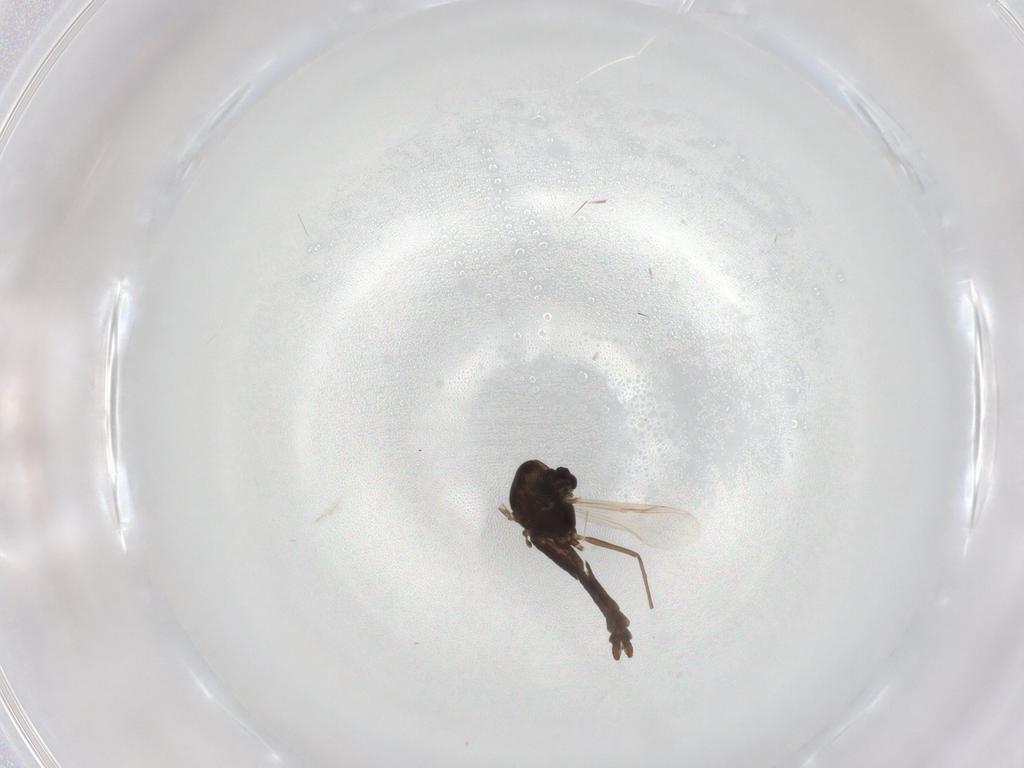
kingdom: Animalia
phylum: Arthropoda
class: Insecta
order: Diptera
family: Chironomidae
